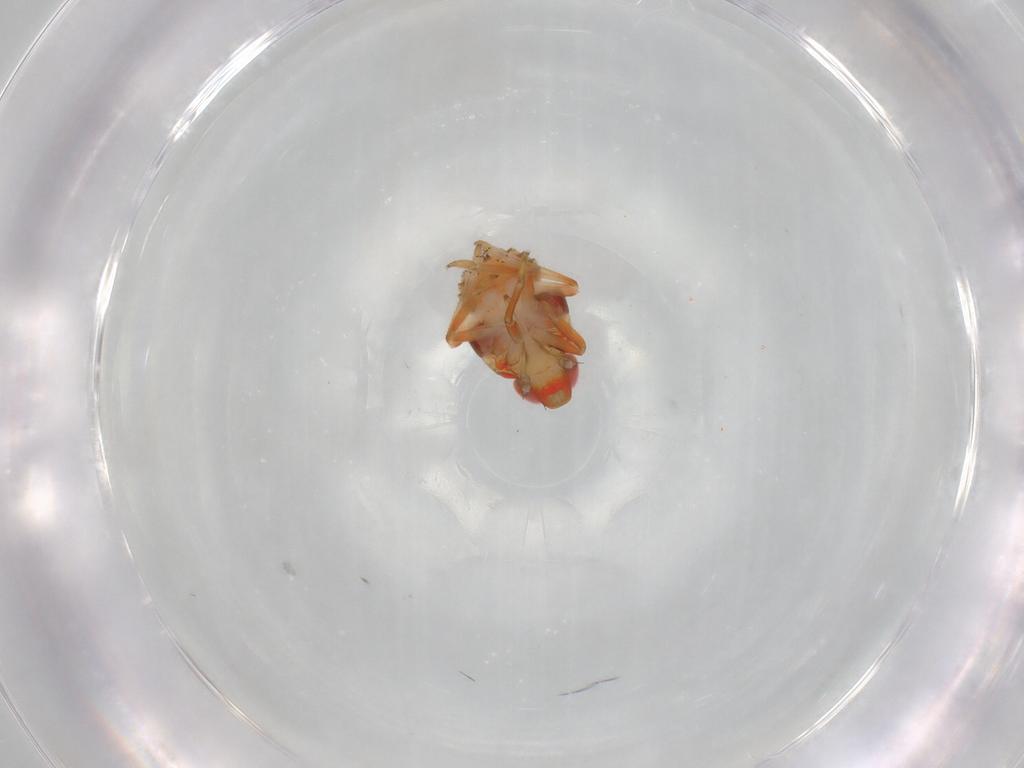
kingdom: Animalia
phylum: Arthropoda
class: Insecta
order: Hemiptera
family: Issidae
